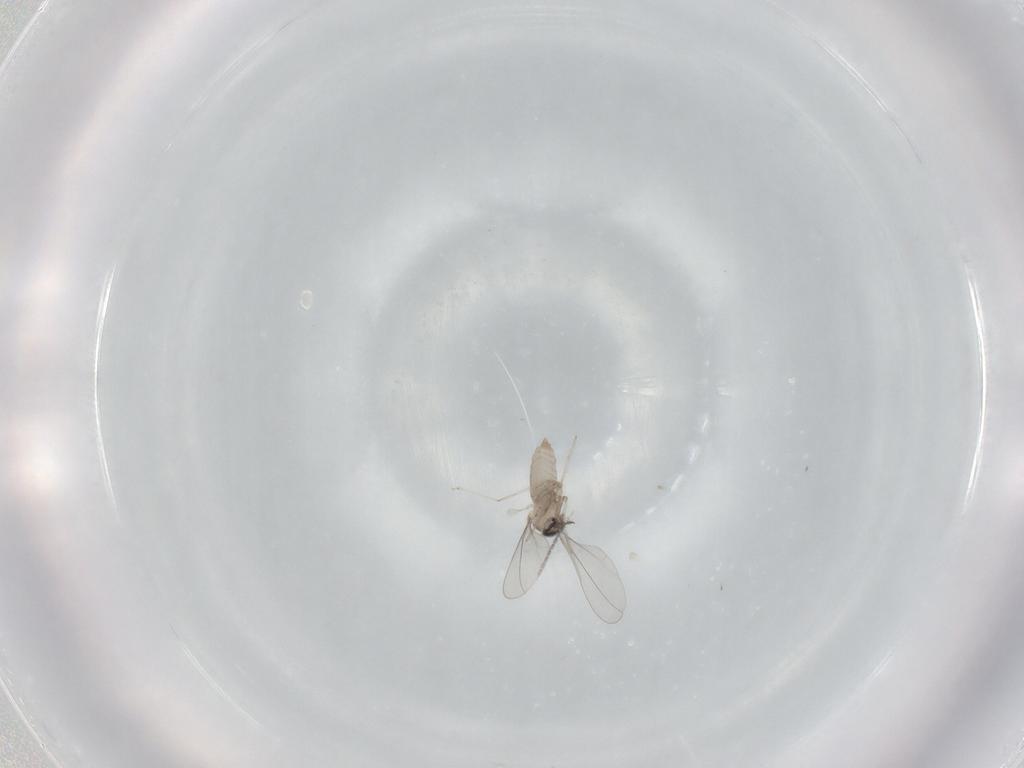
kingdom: Animalia
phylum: Arthropoda
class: Insecta
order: Diptera
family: Cecidomyiidae
